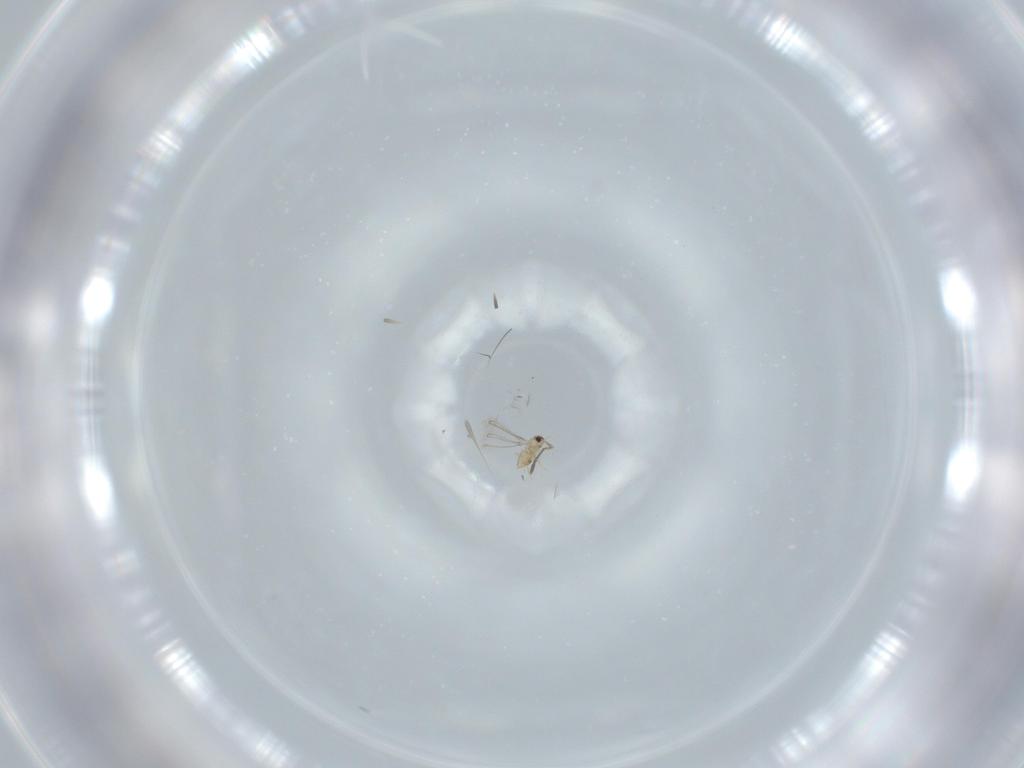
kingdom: Animalia
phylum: Arthropoda
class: Insecta
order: Hymenoptera
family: Mymaridae
